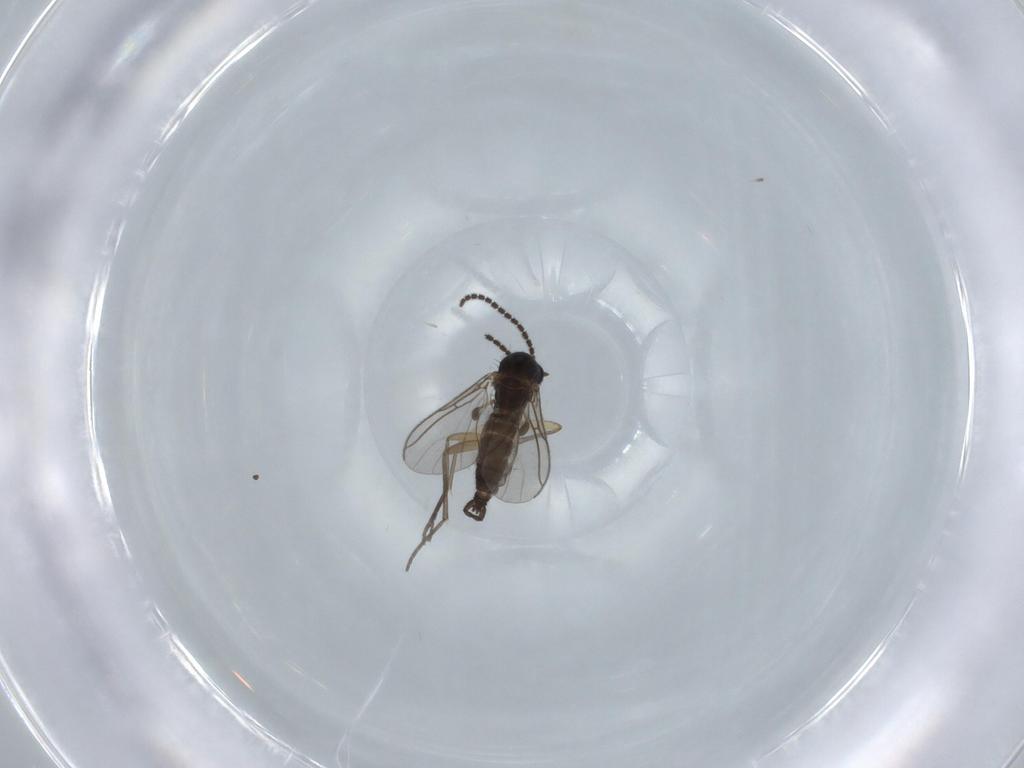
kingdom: Animalia
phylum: Arthropoda
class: Insecta
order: Diptera
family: Sciaridae
